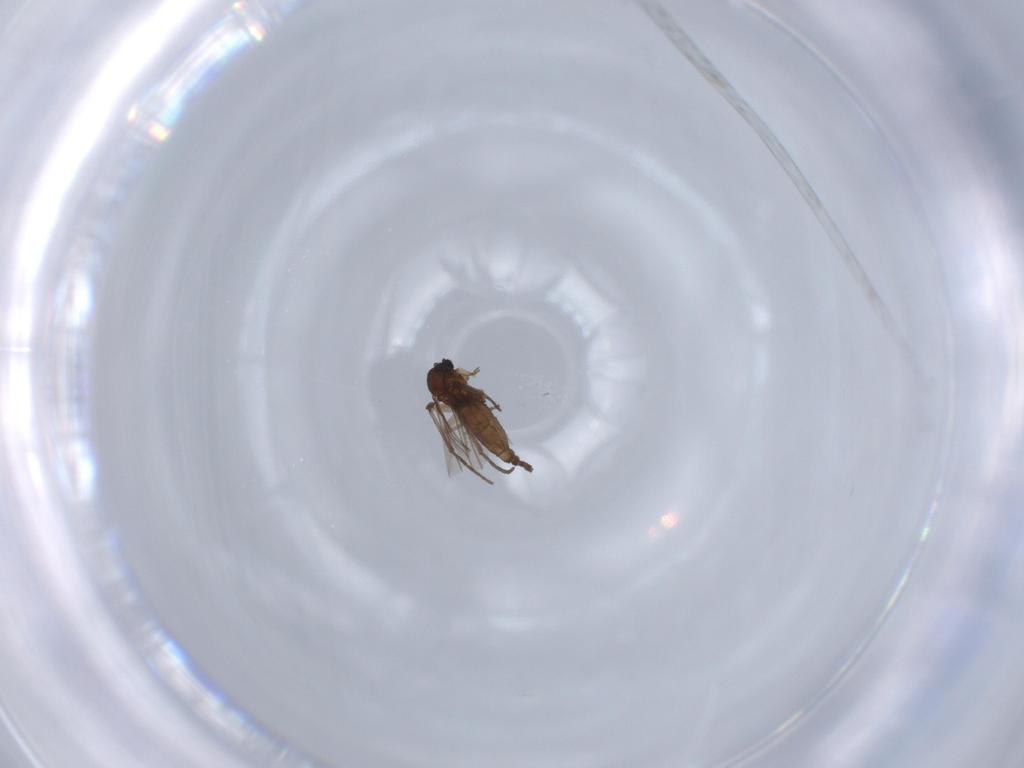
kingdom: Animalia
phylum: Arthropoda
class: Insecta
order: Diptera
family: Sciaridae
